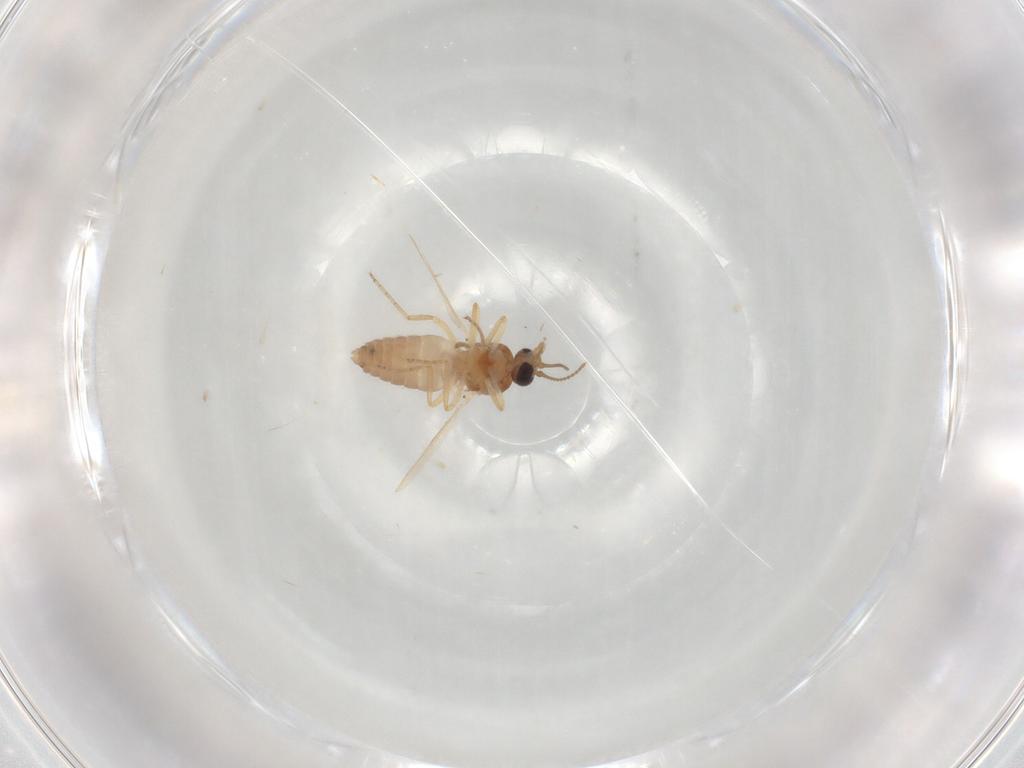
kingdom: Animalia
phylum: Arthropoda
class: Insecta
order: Diptera
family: Ceratopogonidae
